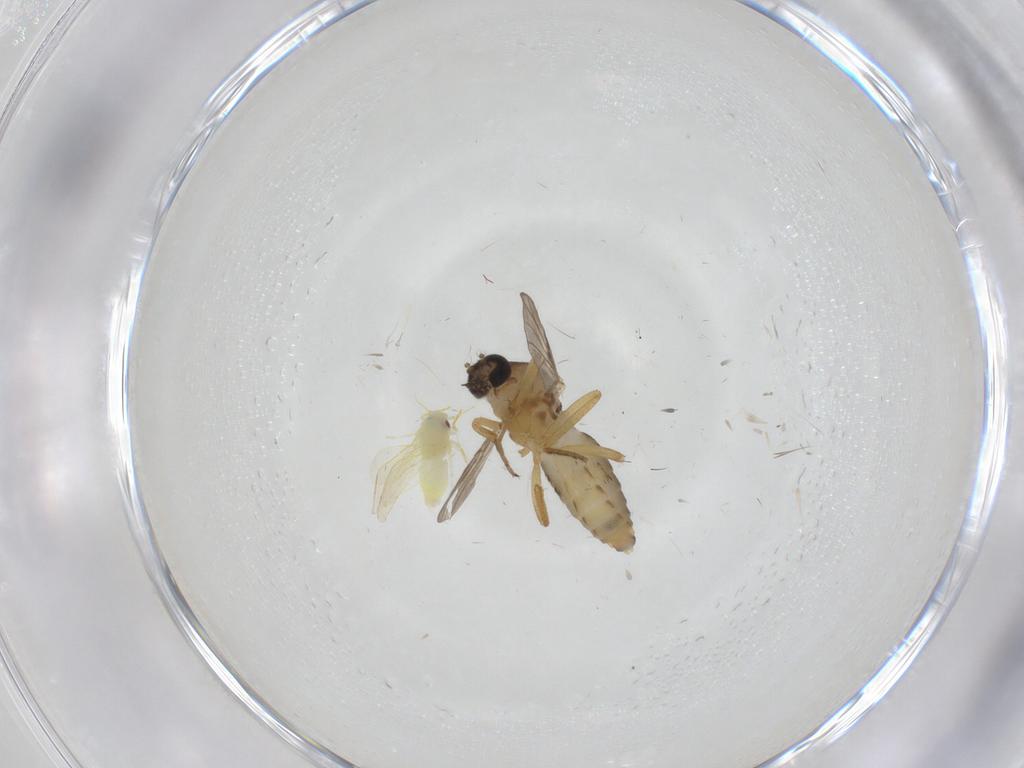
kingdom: Animalia
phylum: Arthropoda
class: Insecta
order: Diptera
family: Ceratopogonidae
